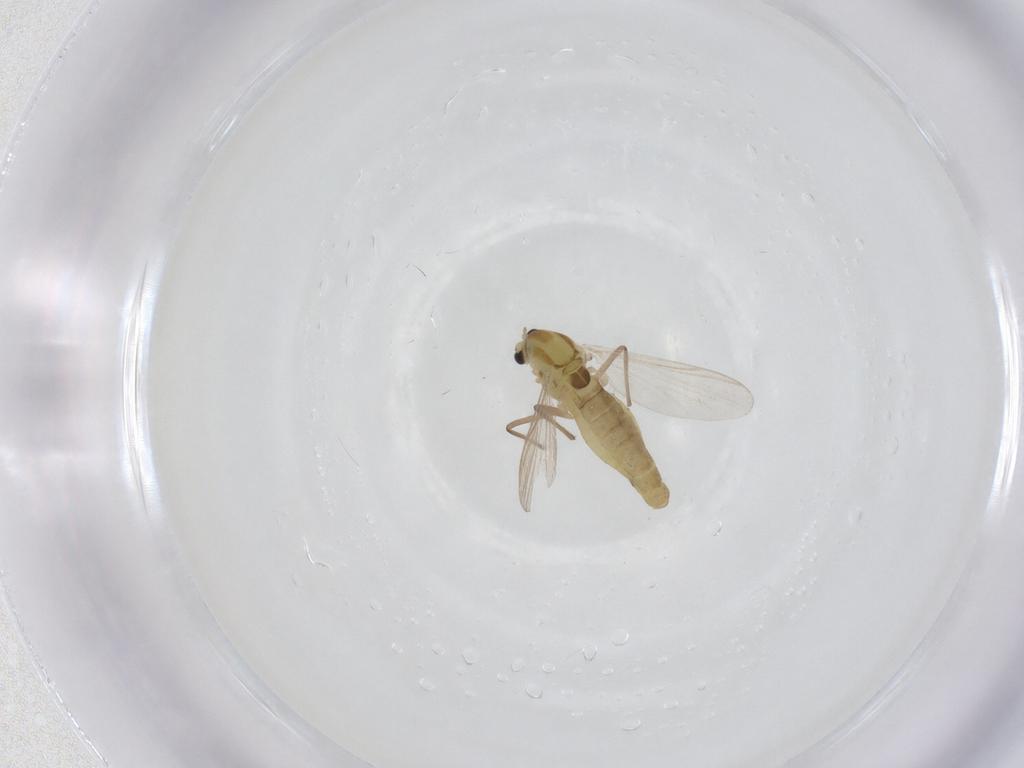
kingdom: Animalia
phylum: Arthropoda
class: Insecta
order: Diptera
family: Chironomidae
